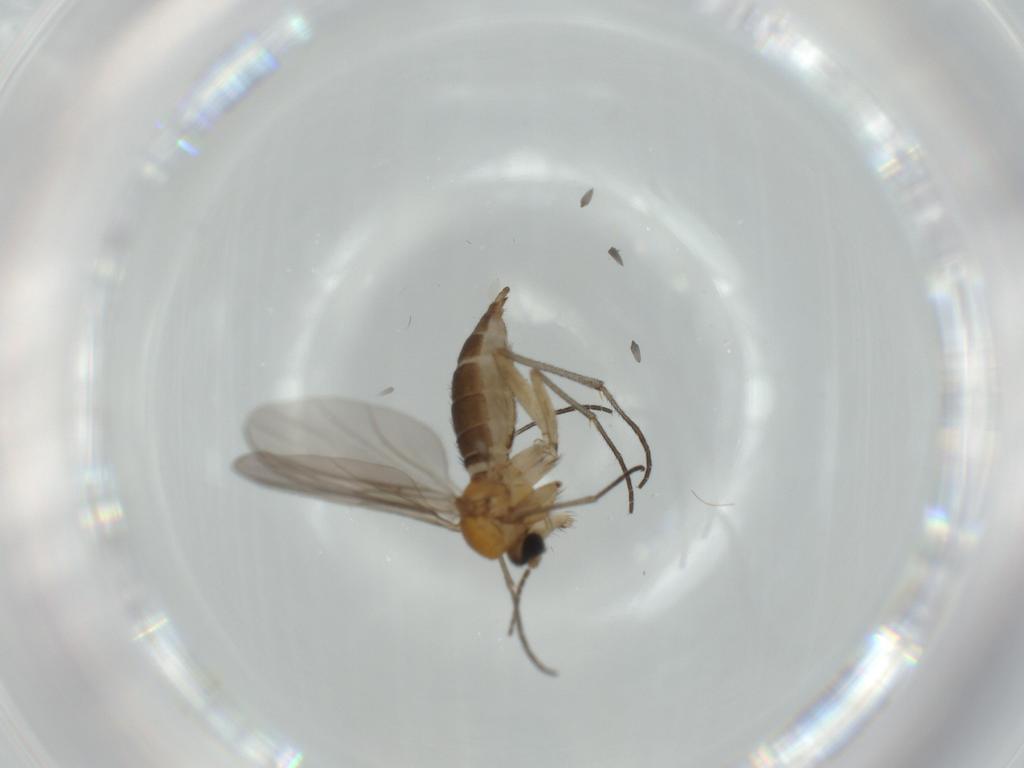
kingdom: Animalia
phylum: Arthropoda
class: Insecta
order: Diptera
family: Sciaridae
